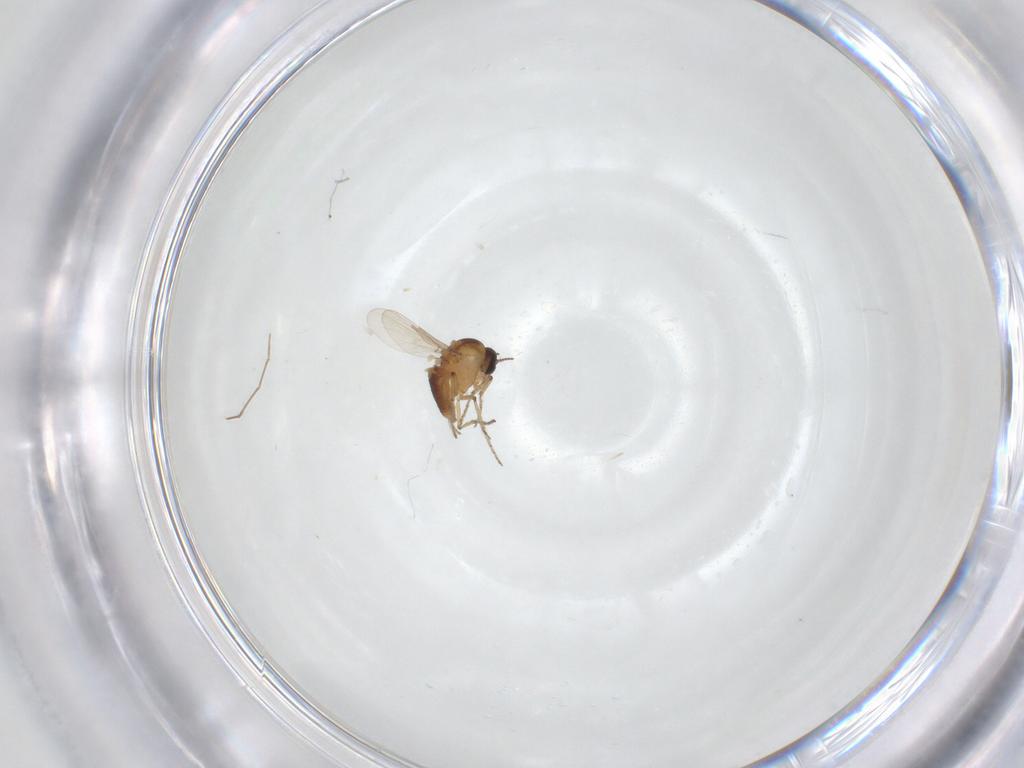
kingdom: Animalia
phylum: Arthropoda
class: Insecta
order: Diptera
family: Ceratopogonidae
